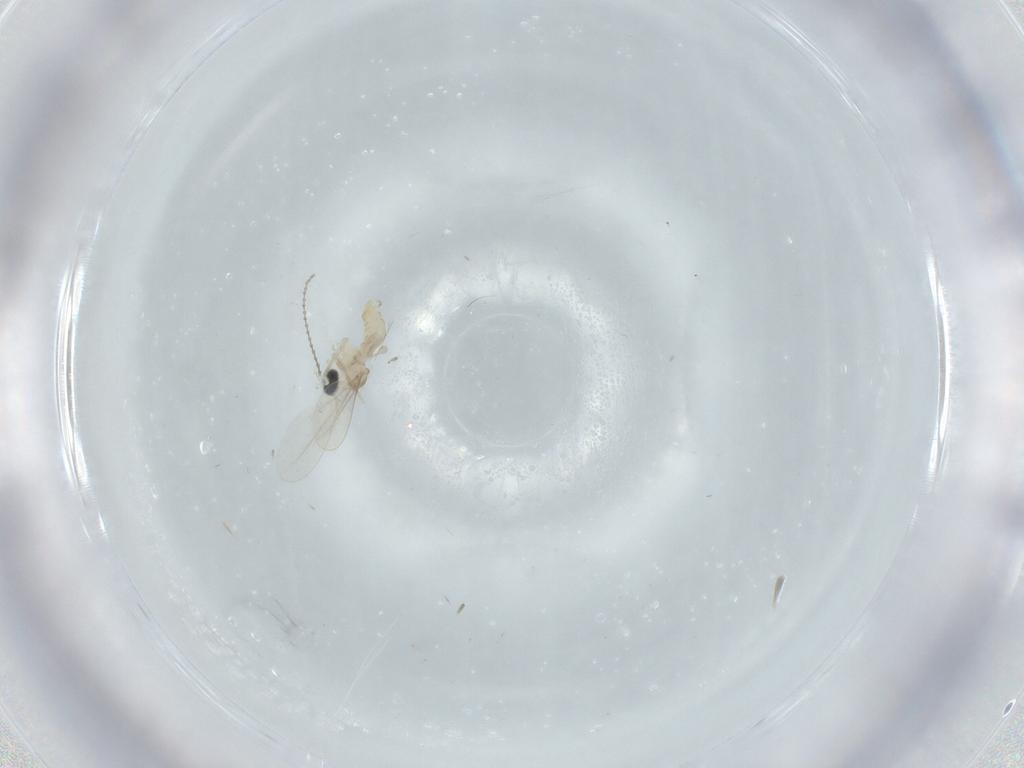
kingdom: Animalia
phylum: Arthropoda
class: Insecta
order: Diptera
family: Cecidomyiidae
